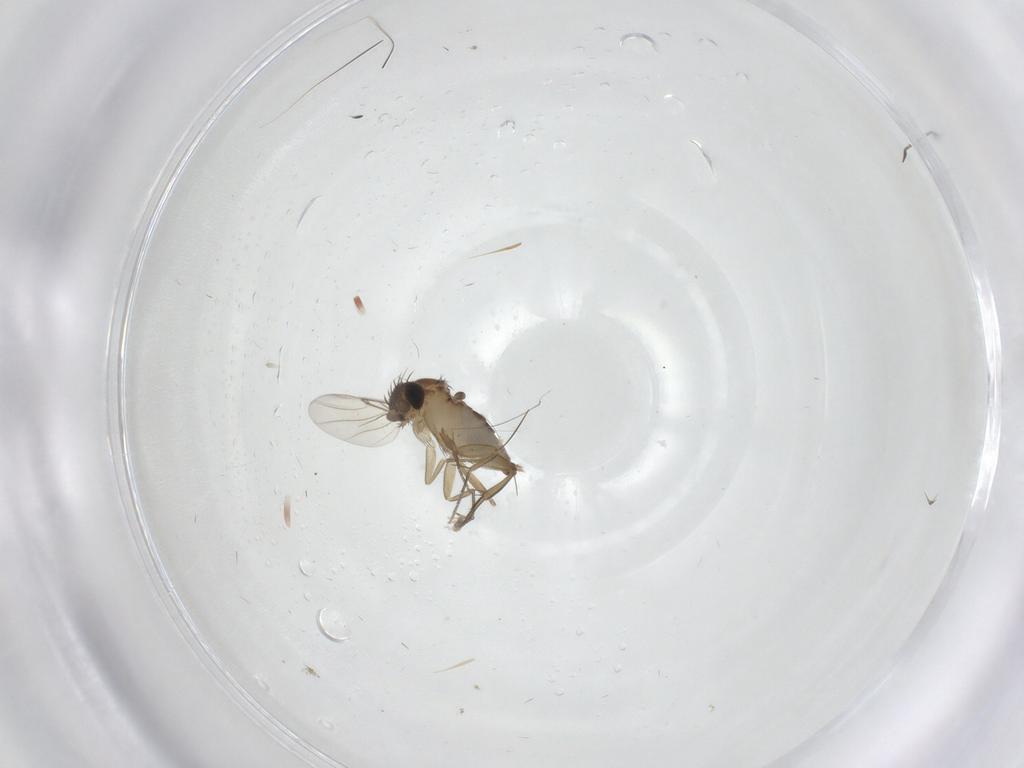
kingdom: Animalia
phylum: Arthropoda
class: Insecta
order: Diptera
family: Phoridae
